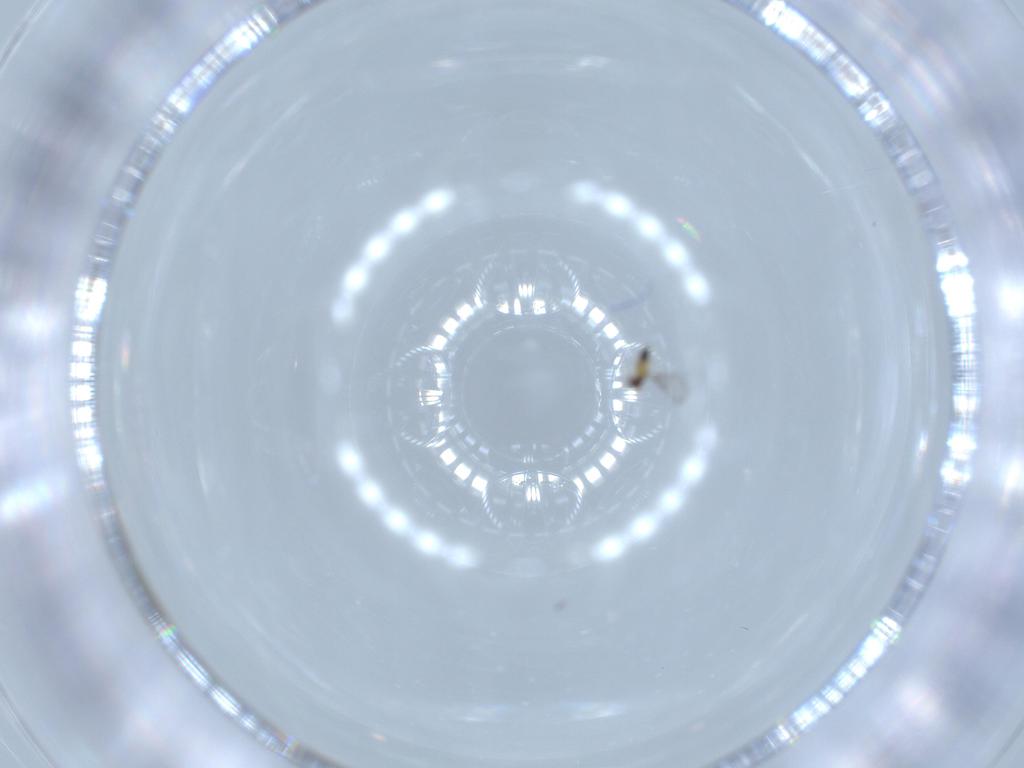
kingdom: Animalia
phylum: Arthropoda
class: Insecta
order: Hymenoptera
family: Trichogrammatidae
